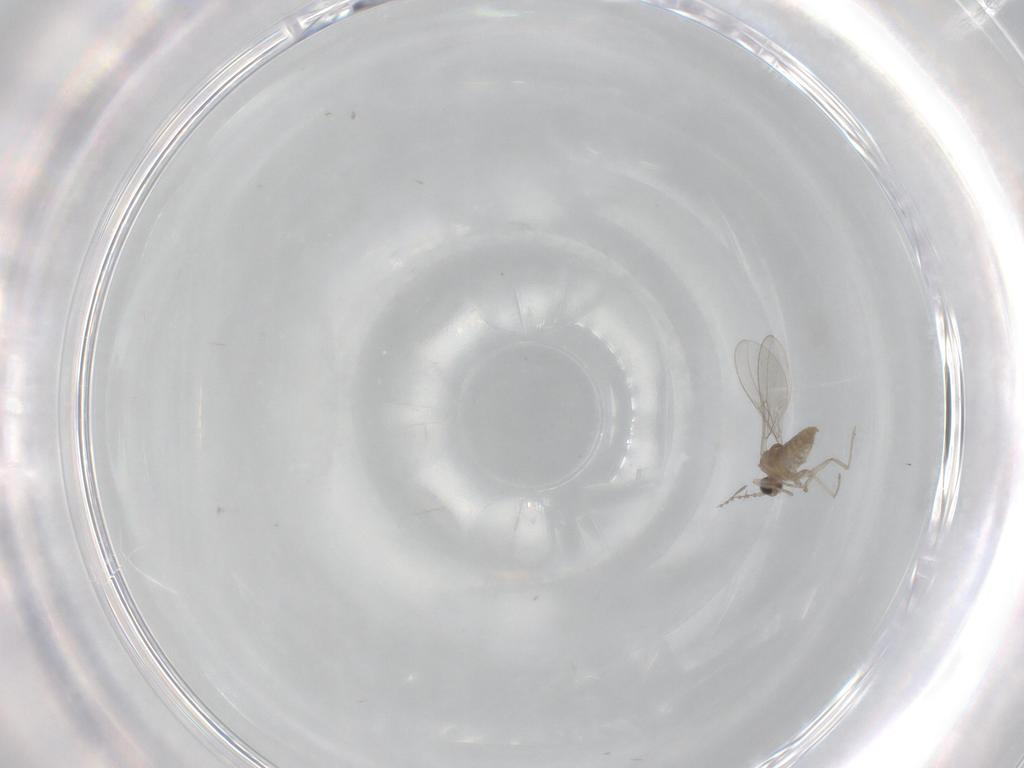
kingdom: Animalia
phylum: Arthropoda
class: Insecta
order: Diptera
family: Cecidomyiidae
